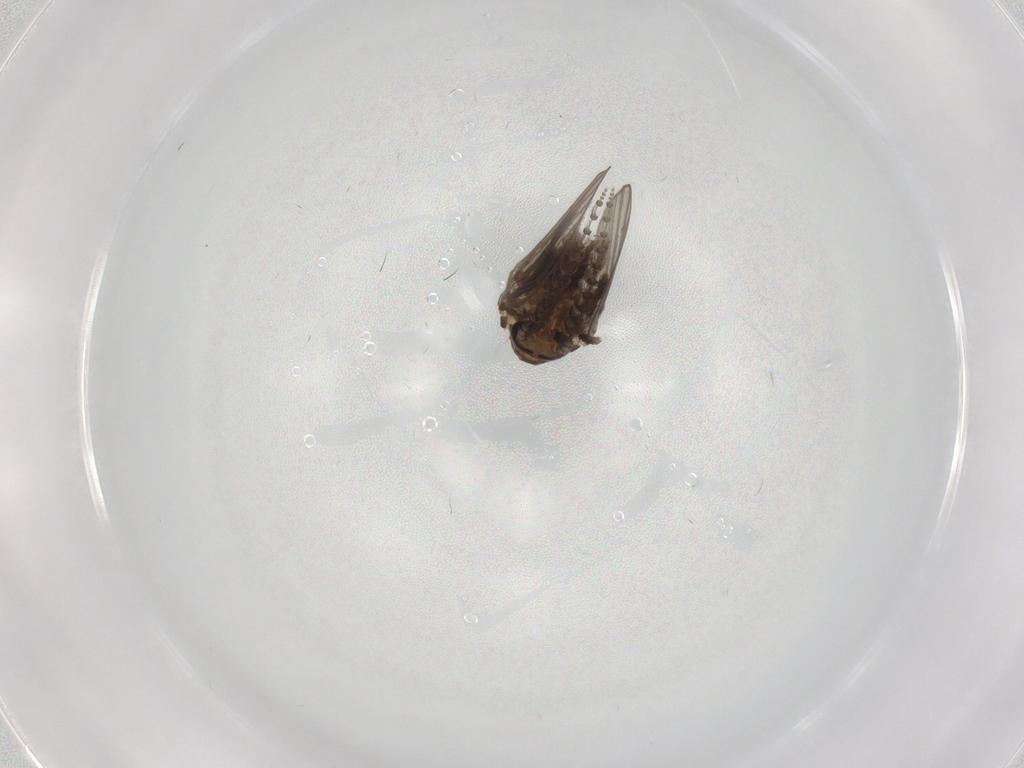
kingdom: Animalia
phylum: Arthropoda
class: Insecta
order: Diptera
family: Psychodidae
